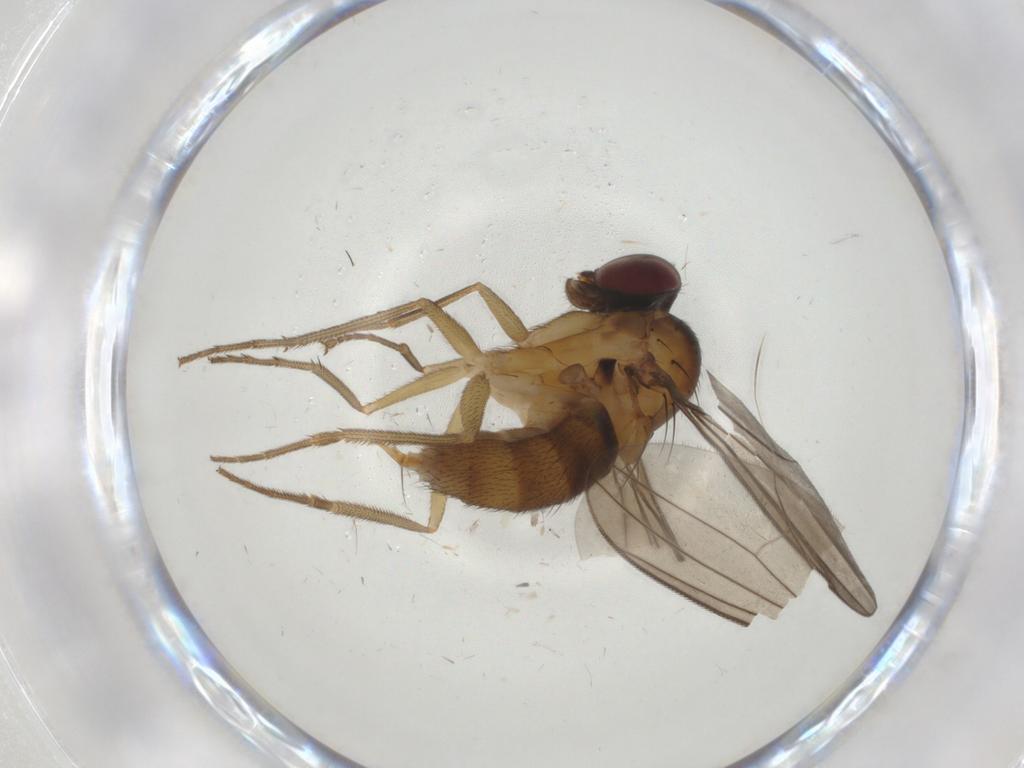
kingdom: Animalia
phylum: Arthropoda
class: Insecta
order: Diptera
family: Dolichopodidae
